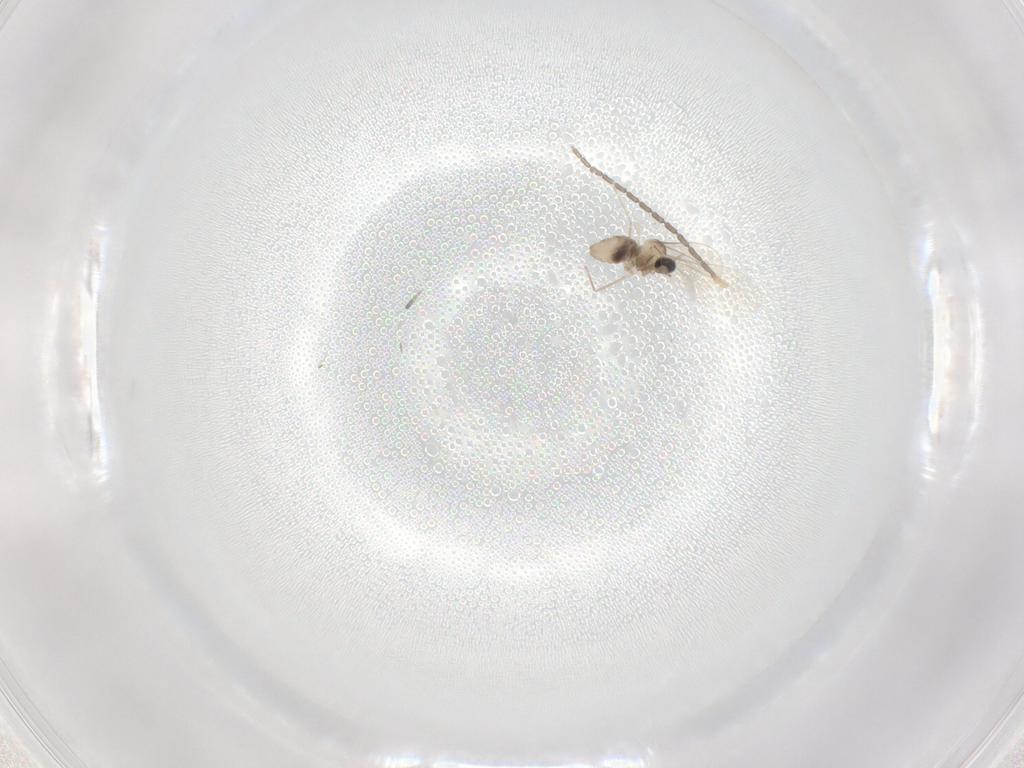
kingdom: Animalia
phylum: Arthropoda
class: Insecta
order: Diptera
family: Cecidomyiidae
